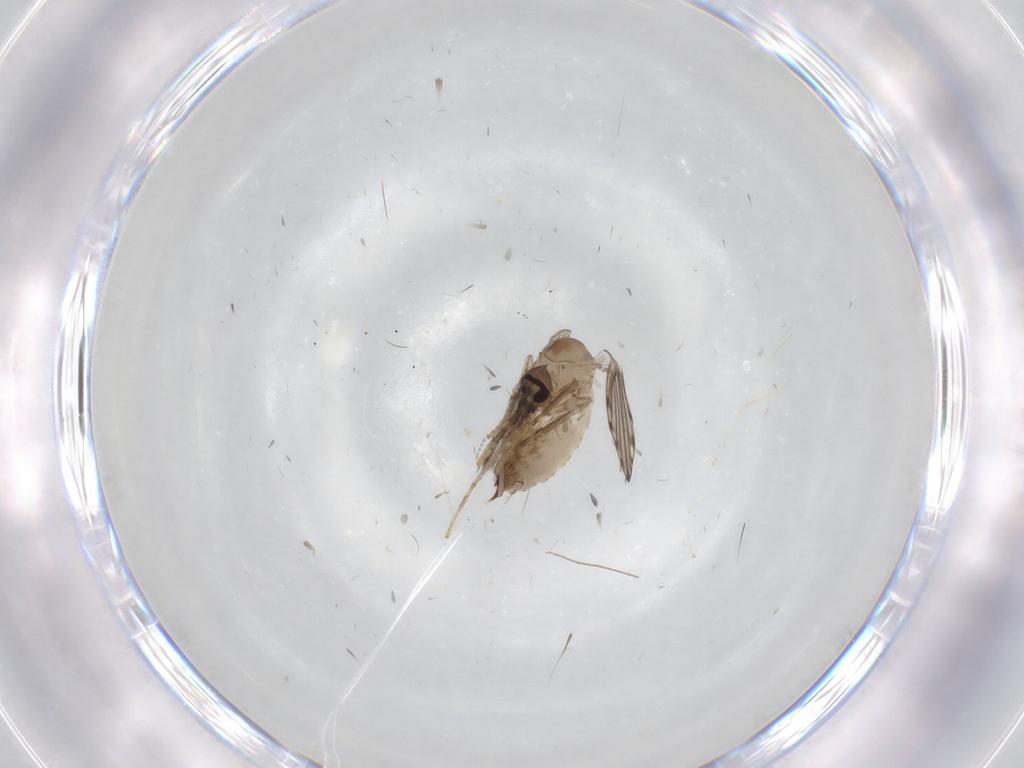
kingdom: Animalia
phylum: Arthropoda
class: Insecta
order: Diptera
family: Psychodidae
